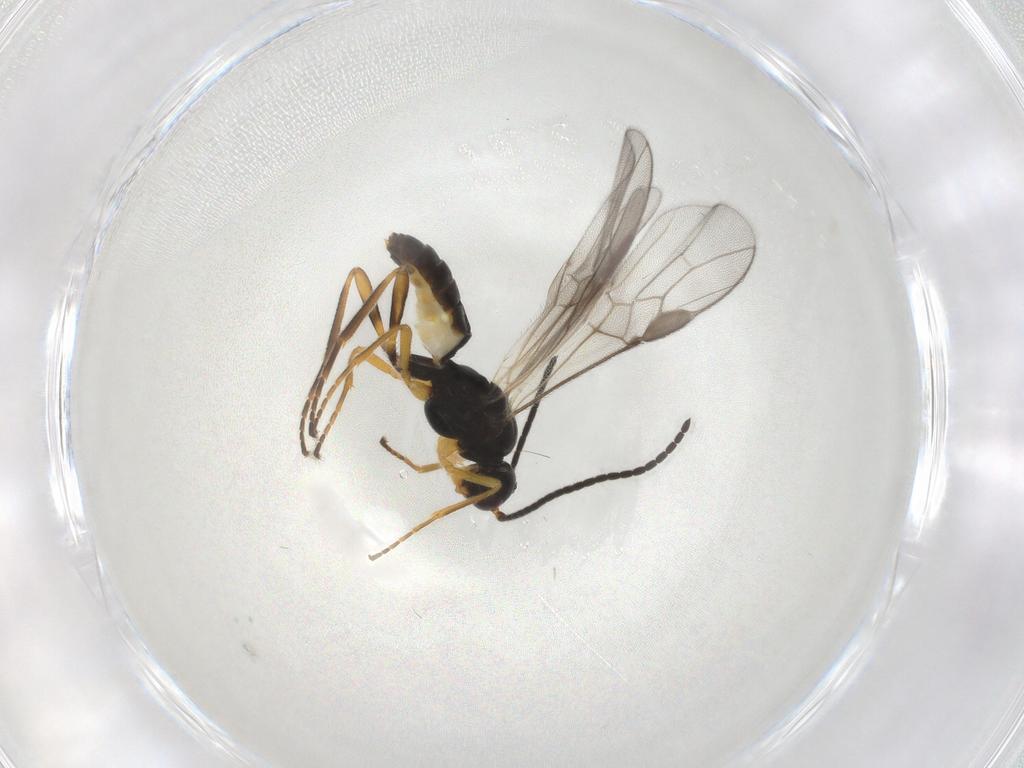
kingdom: Animalia
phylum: Arthropoda
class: Insecta
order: Hymenoptera
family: Braconidae
